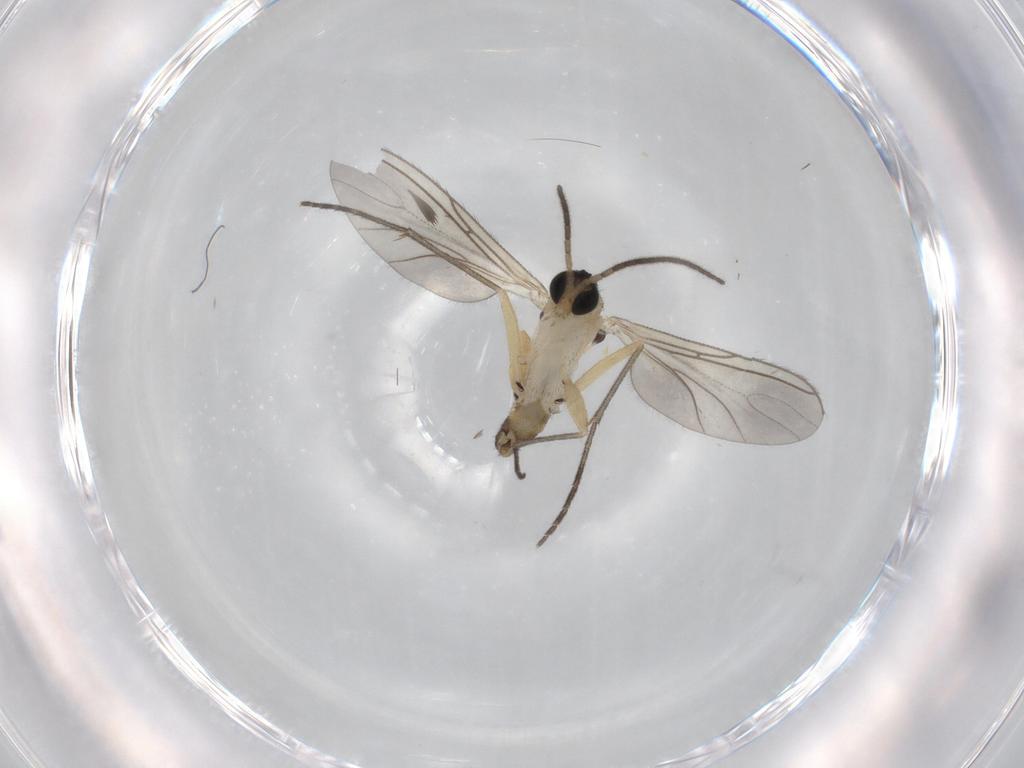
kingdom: Animalia
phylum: Arthropoda
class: Insecta
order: Diptera
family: Sciaridae
